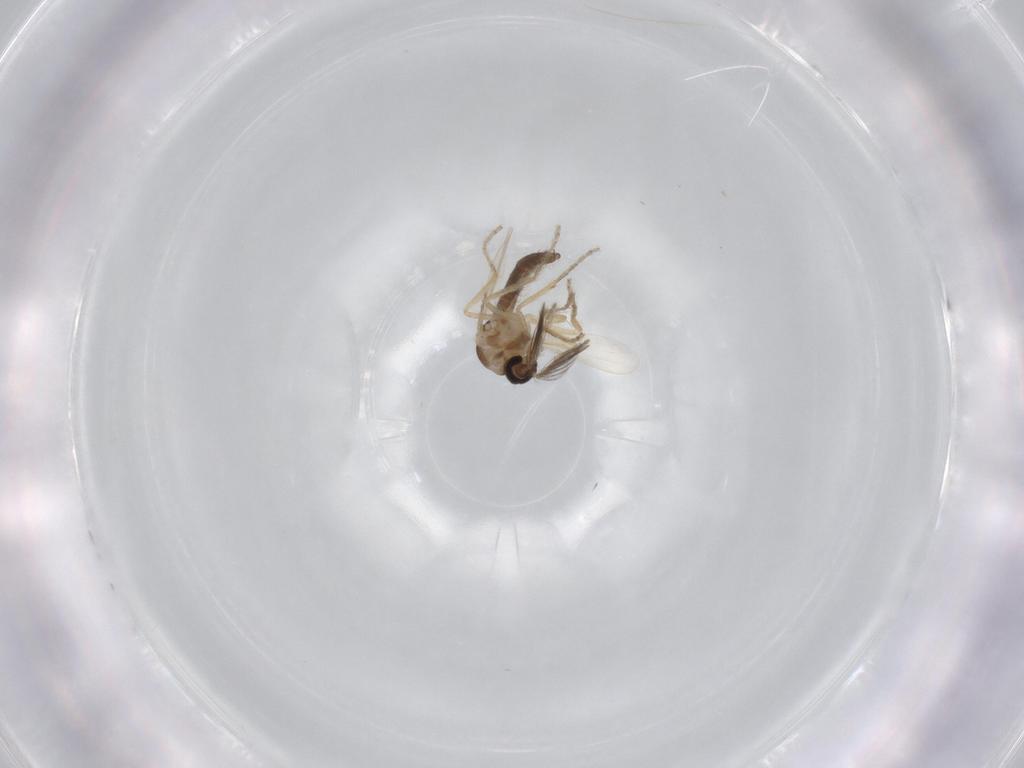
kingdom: Animalia
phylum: Arthropoda
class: Insecta
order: Diptera
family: Ceratopogonidae
